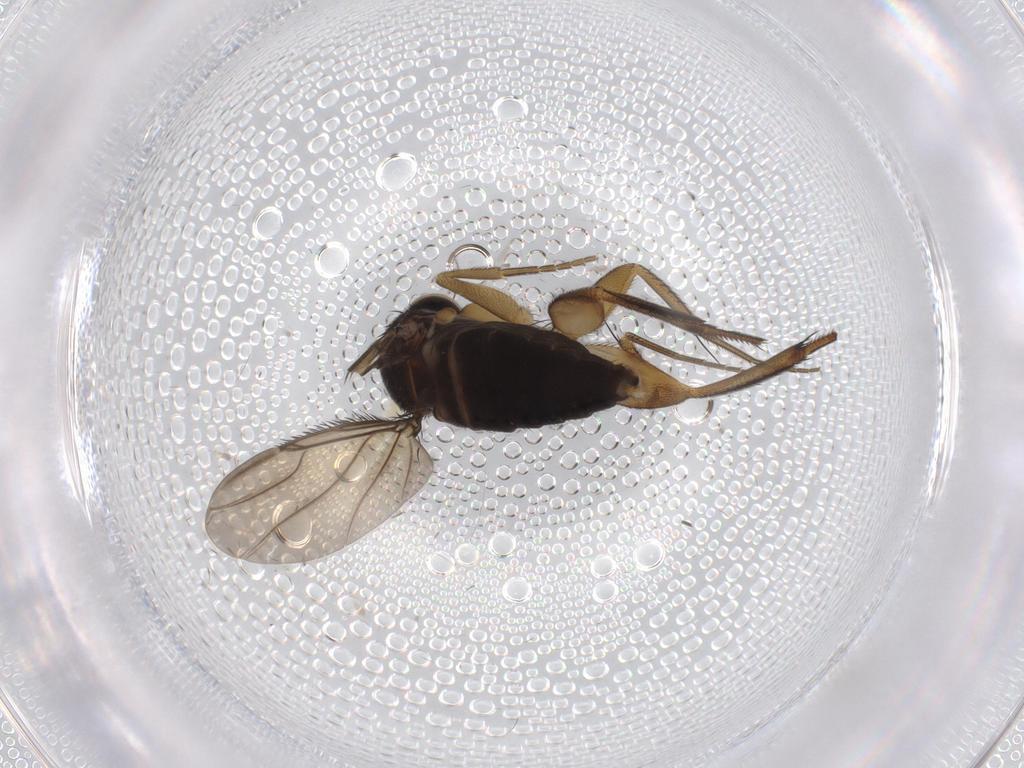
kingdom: Animalia
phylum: Arthropoda
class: Insecta
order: Diptera
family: Phoridae
